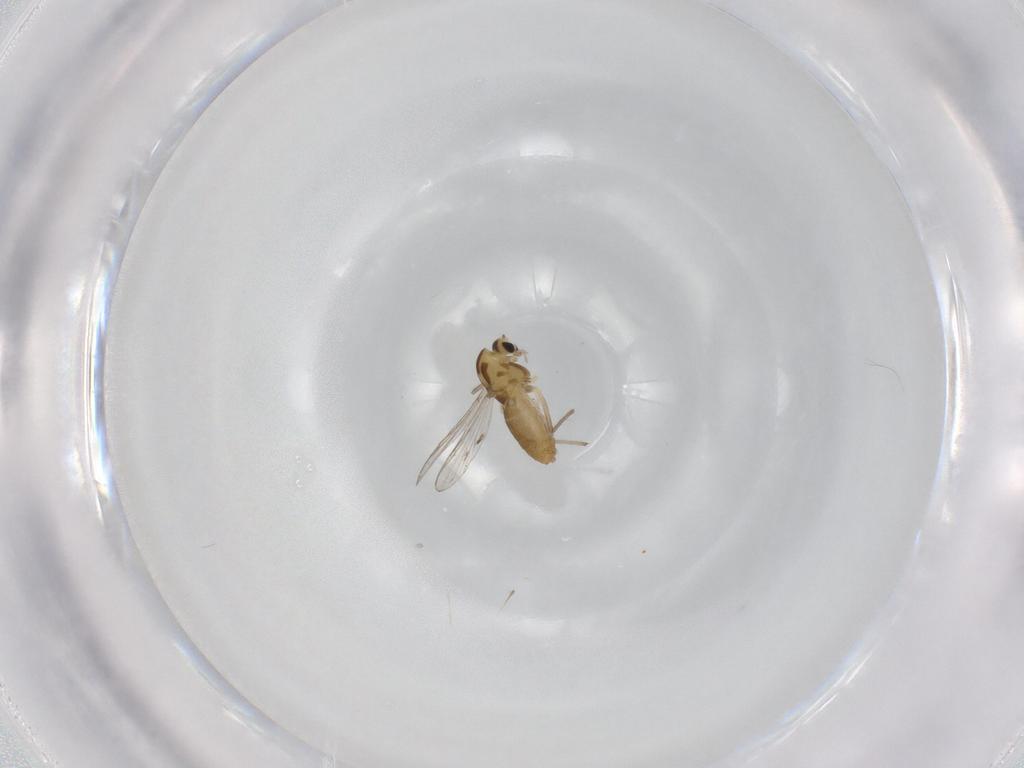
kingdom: Animalia
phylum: Arthropoda
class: Insecta
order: Diptera
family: Chironomidae
